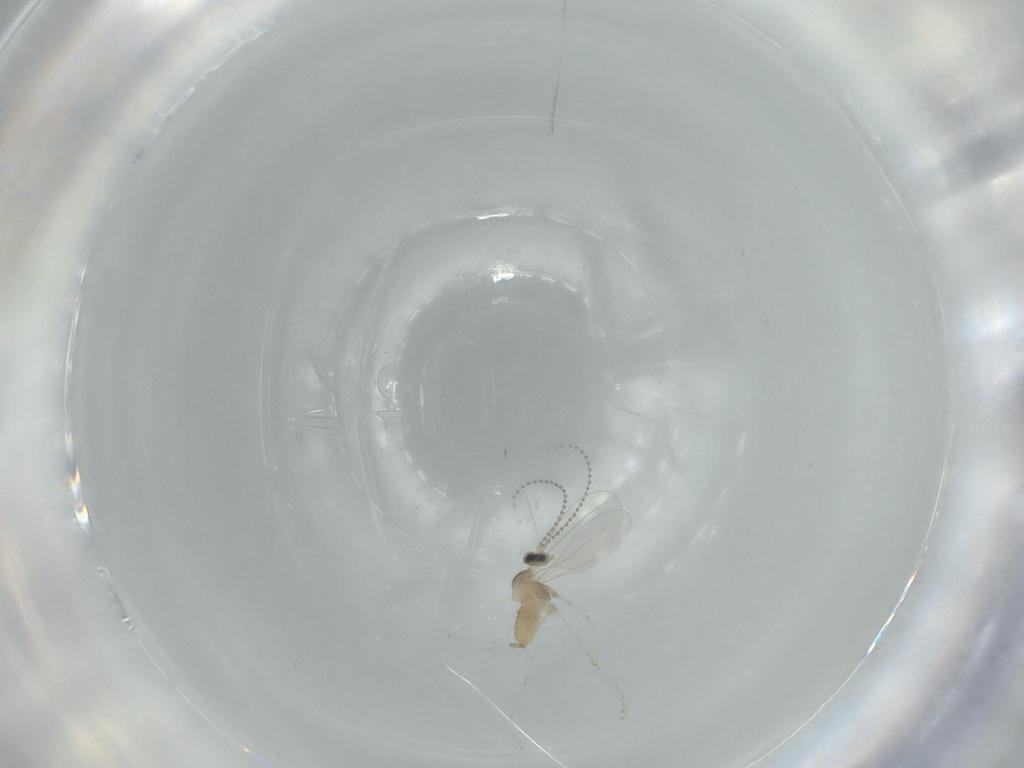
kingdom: Animalia
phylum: Arthropoda
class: Insecta
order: Diptera
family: Cecidomyiidae
